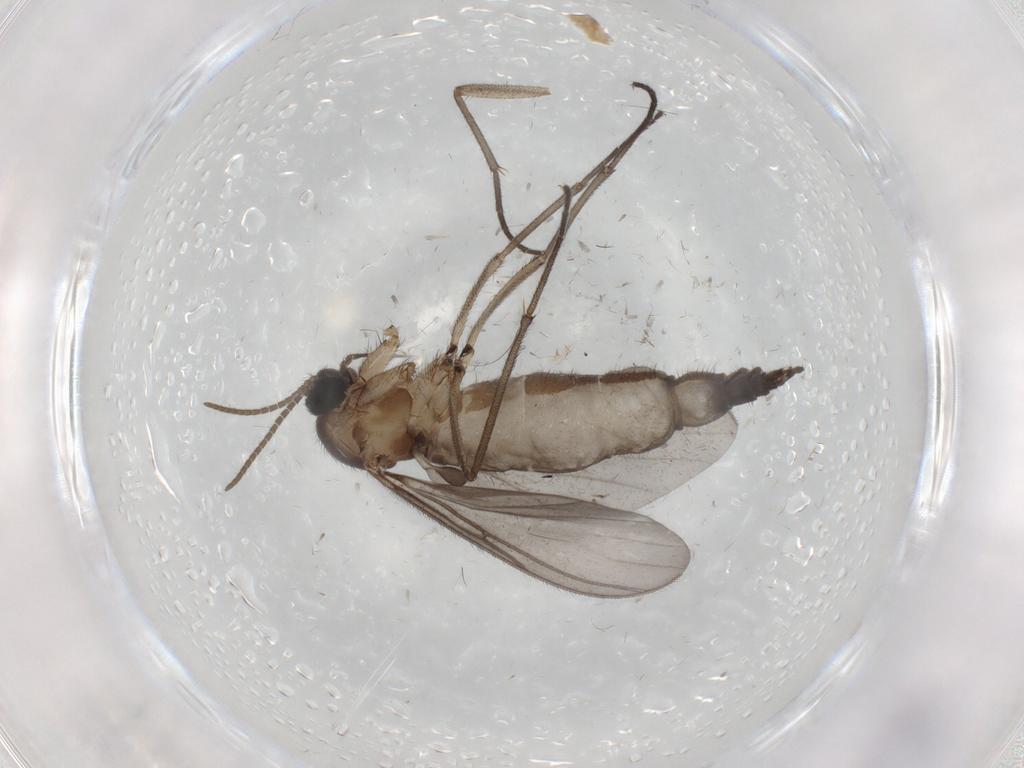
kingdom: Animalia
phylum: Arthropoda
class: Insecta
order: Diptera
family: Chironomidae
